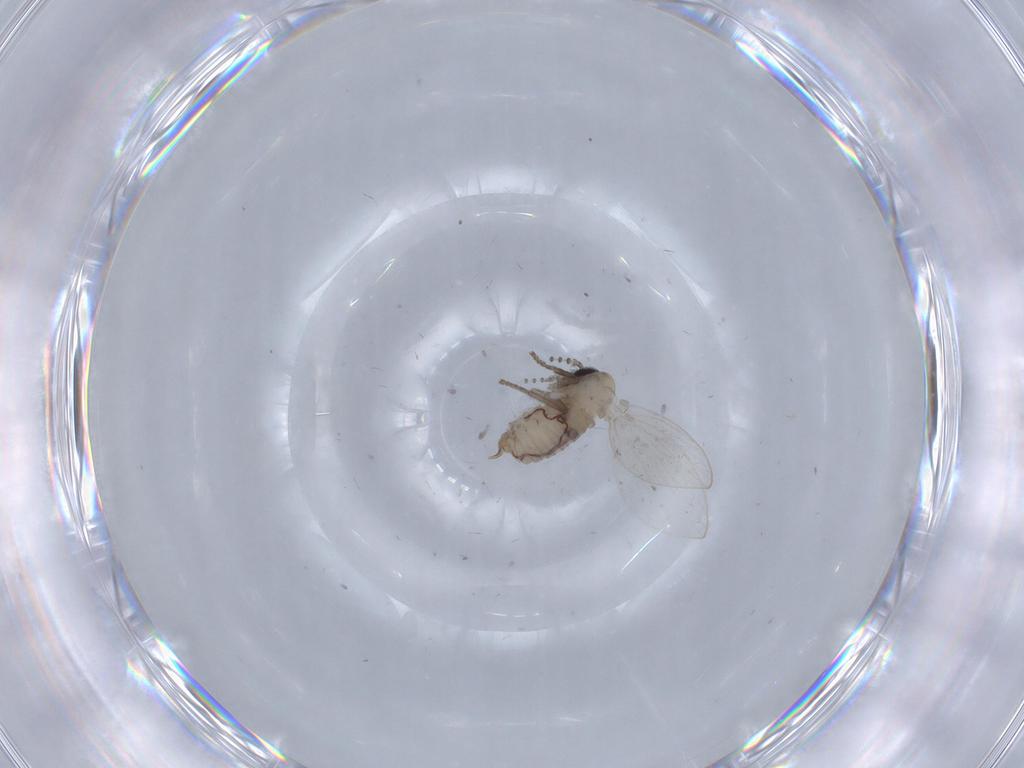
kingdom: Animalia
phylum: Arthropoda
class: Insecta
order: Diptera
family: Psychodidae
